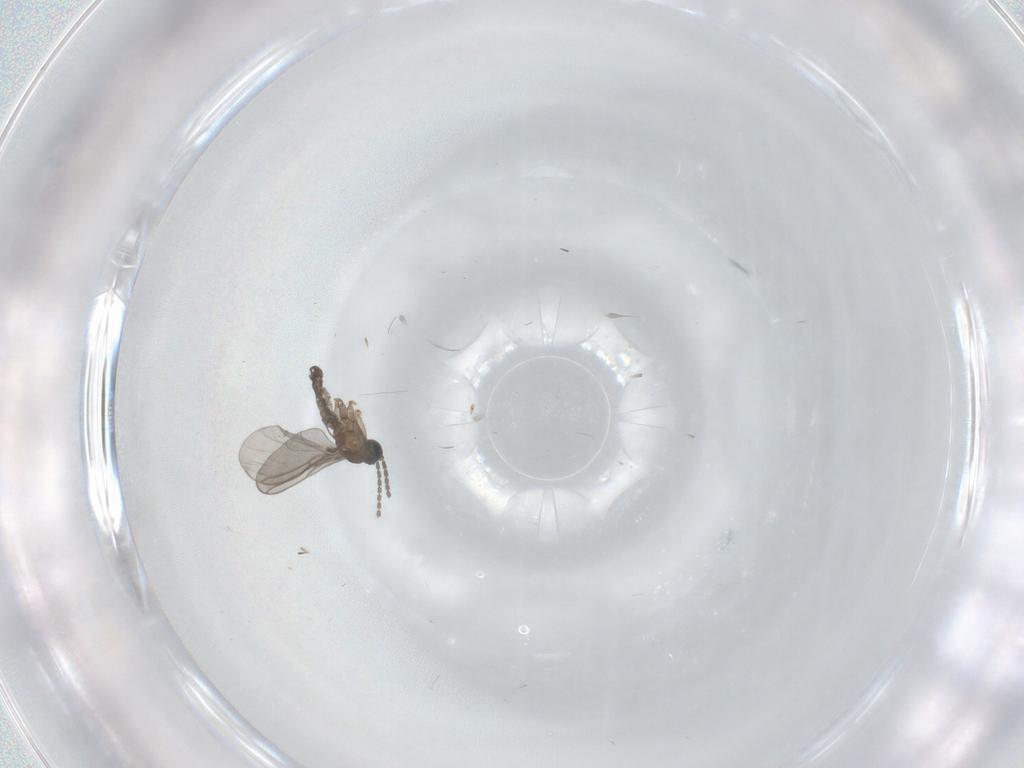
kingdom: Animalia
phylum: Arthropoda
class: Insecta
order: Diptera
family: Sciaridae
